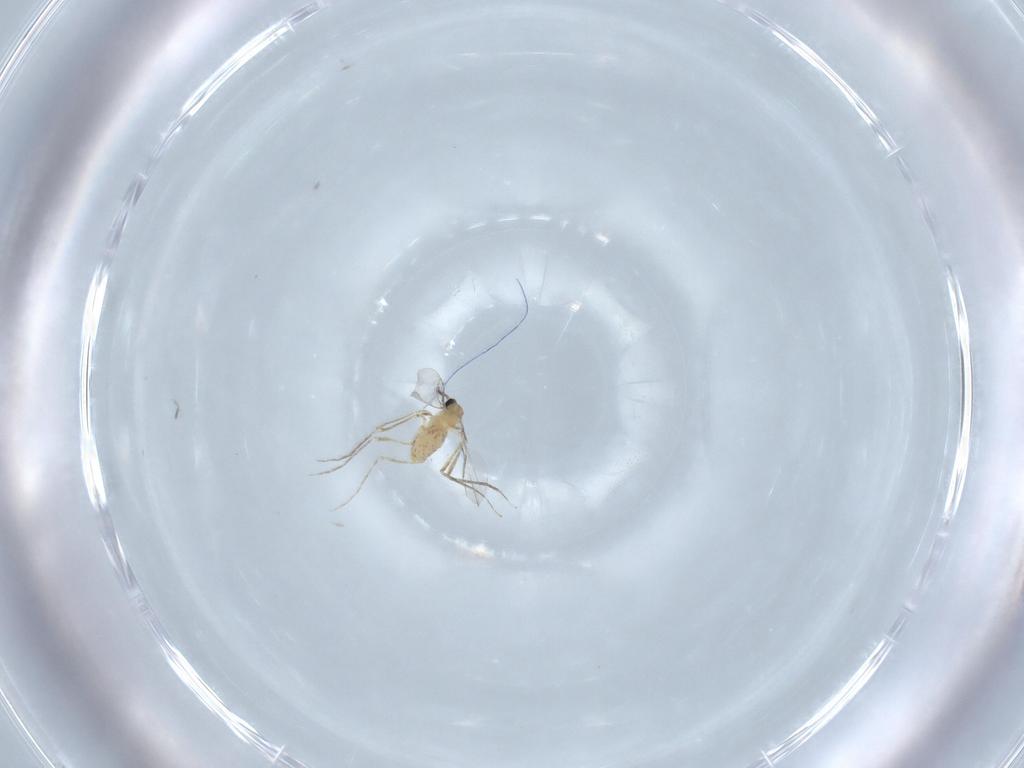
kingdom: Animalia
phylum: Arthropoda
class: Insecta
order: Diptera
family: Cecidomyiidae
